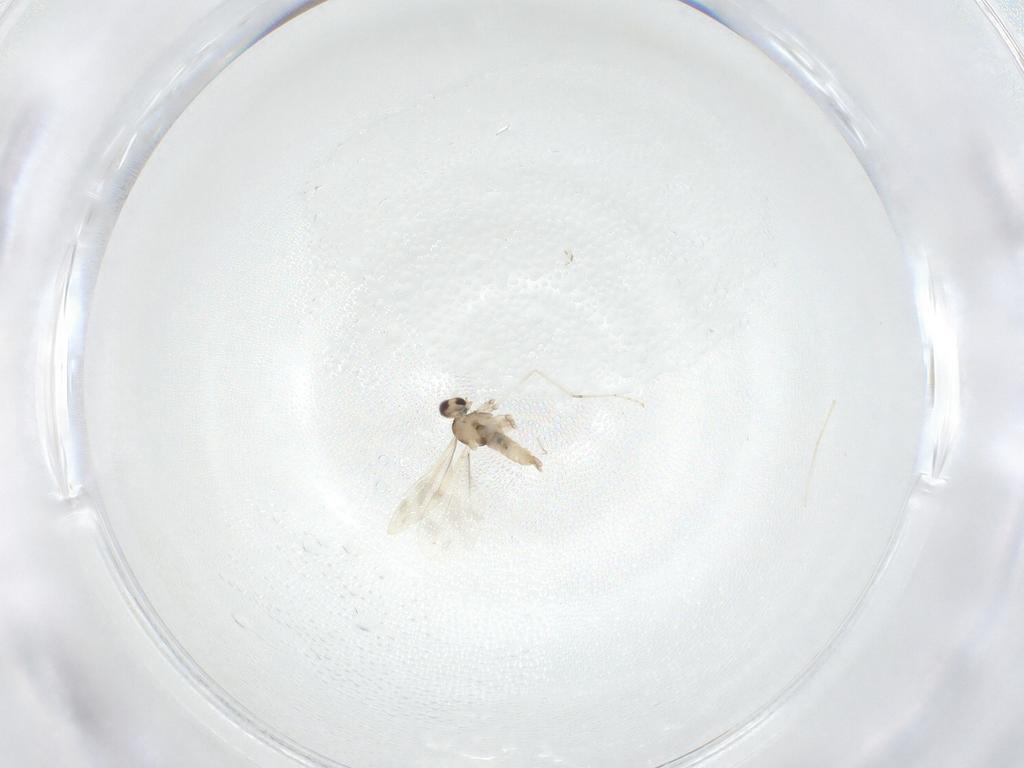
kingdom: Animalia
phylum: Arthropoda
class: Insecta
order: Diptera
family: Psychodidae
